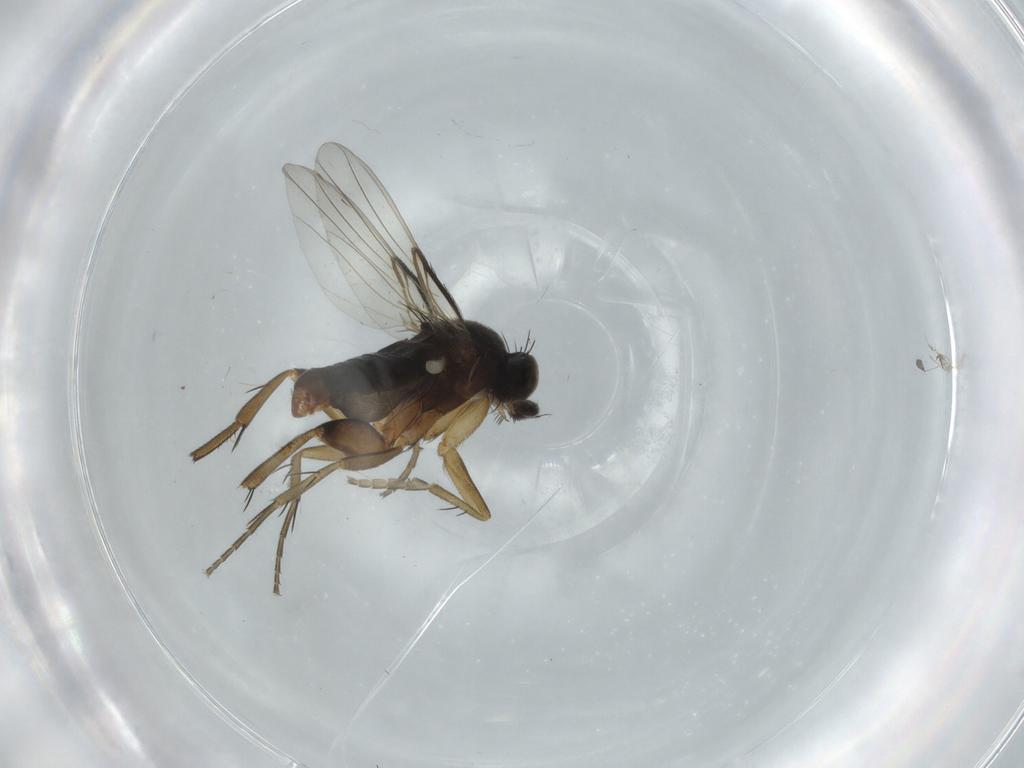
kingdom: Animalia
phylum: Arthropoda
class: Insecta
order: Diptera
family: Phoridae
